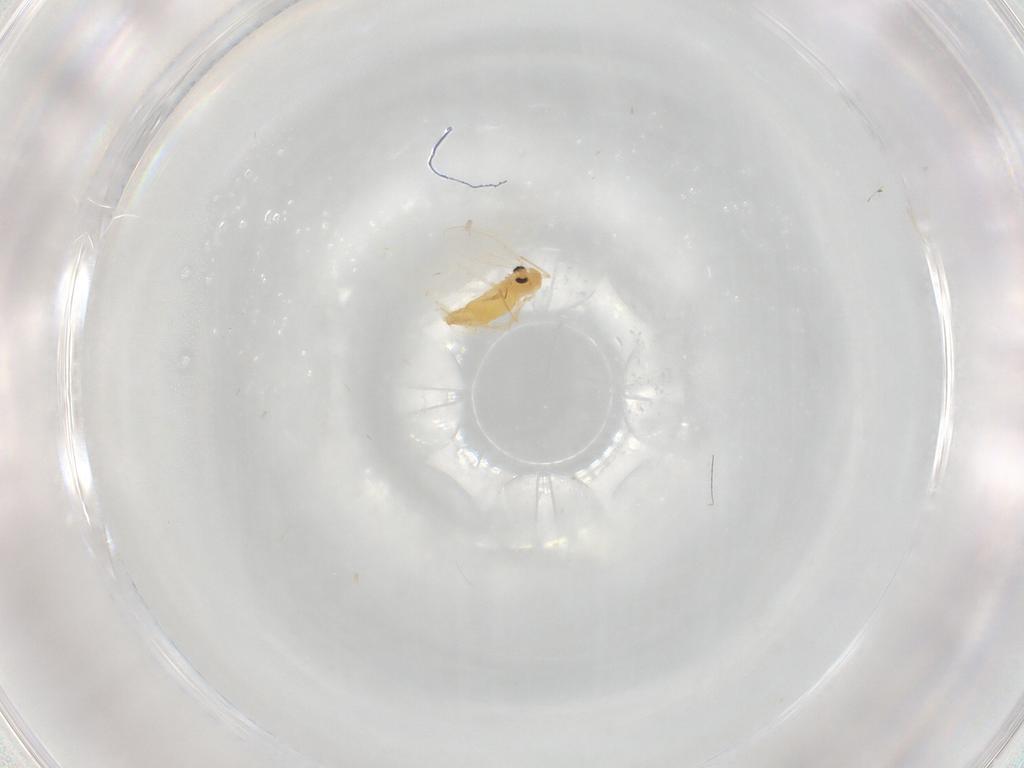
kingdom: Animalia
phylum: Arthropoda
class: Insecta
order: Diptera
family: Chironomidae
